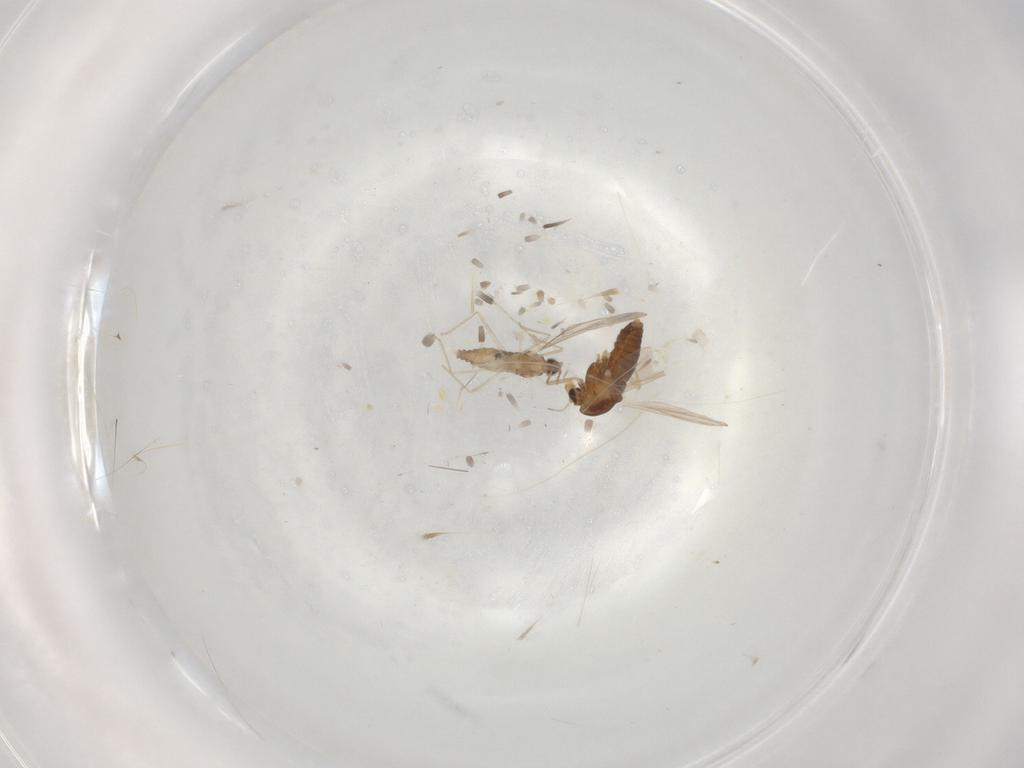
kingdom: Animalia
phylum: Arthropoda
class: Insecta
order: Diptera
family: Chironomidae
